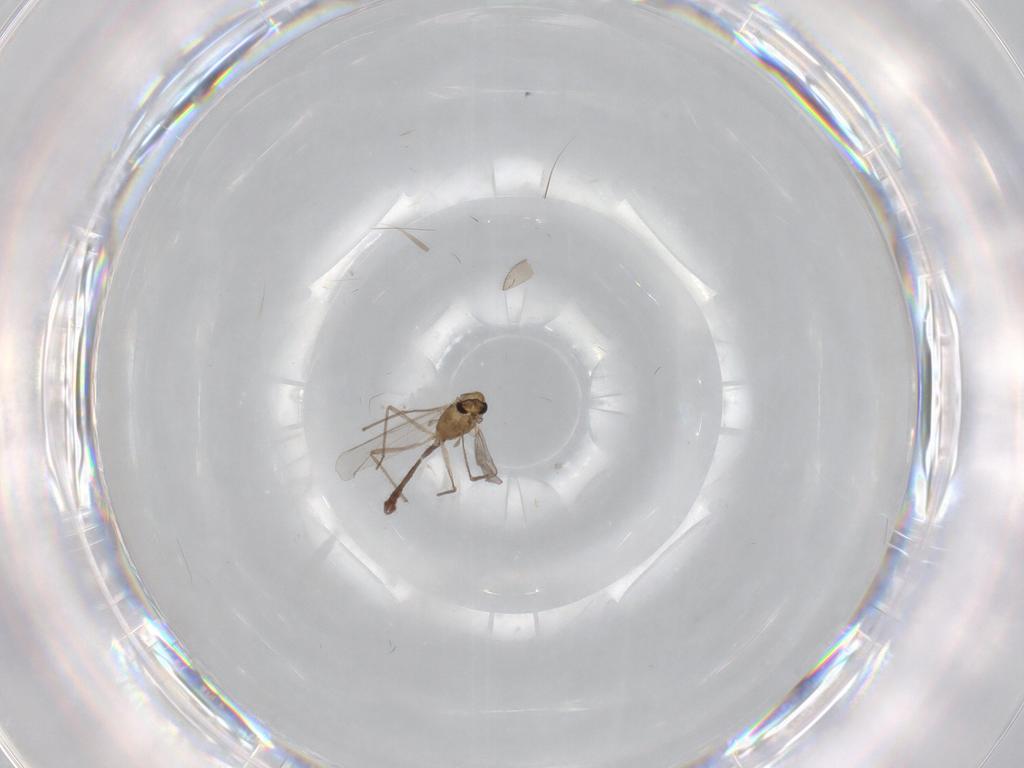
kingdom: Animalia
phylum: Arthropoda
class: Insecta
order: Diptera
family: Chironomidae
